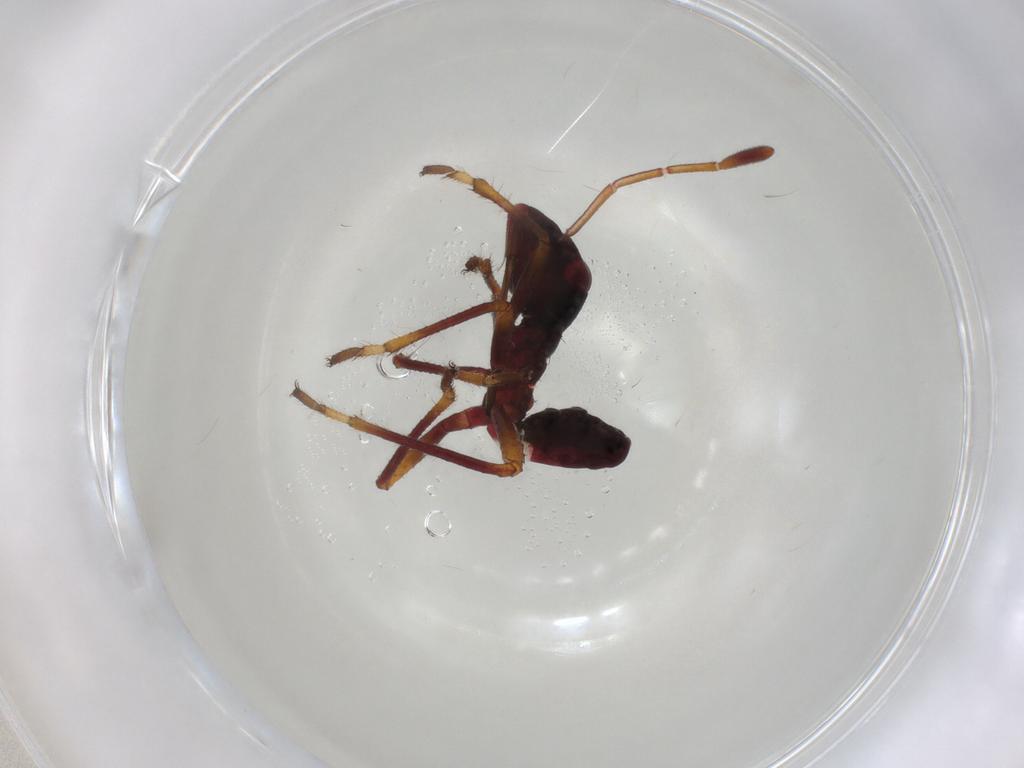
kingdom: Animalia
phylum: Arthropoda
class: Insecta
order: Hemiptera
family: Alydidae
